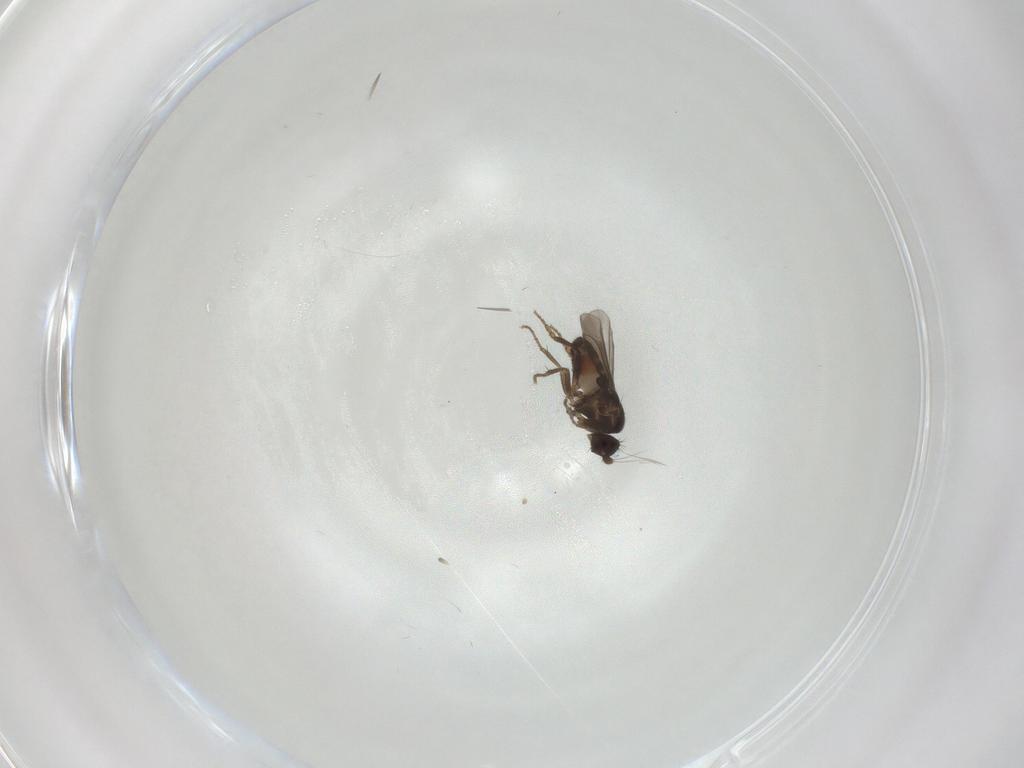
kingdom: Animalia
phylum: Arthropoda
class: Insecta
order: Diptera
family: Sphaeroceridae
